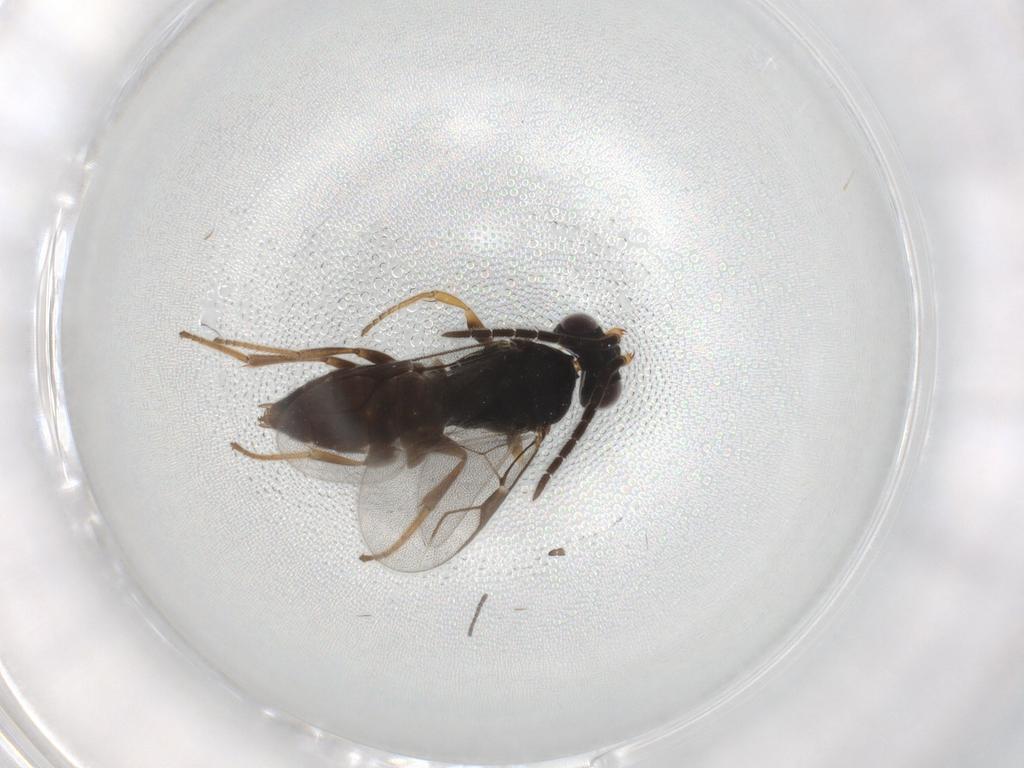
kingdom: Animalia
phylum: Arthropoda
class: Insecta
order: Hymenoptera
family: Dryinidae
